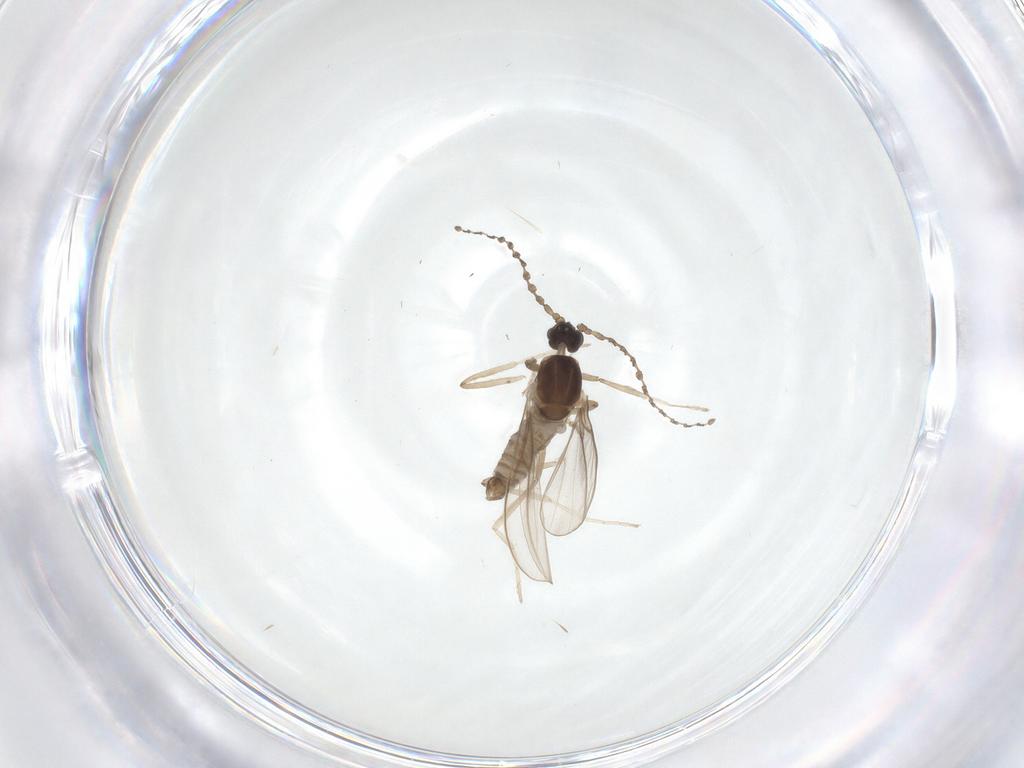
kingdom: Animalia
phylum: Arthropoda
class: Insecta
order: Diptera
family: Cecidomyiidae
